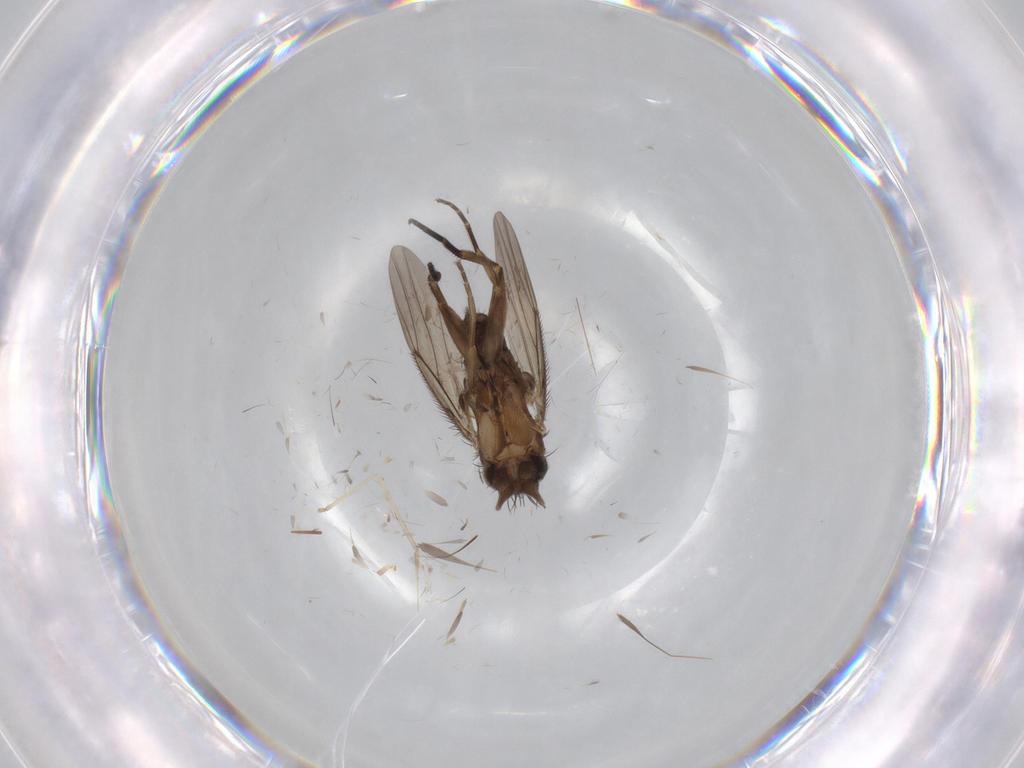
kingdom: Animalia
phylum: Arthropoda
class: Insecta
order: Diptera
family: Phoridae
